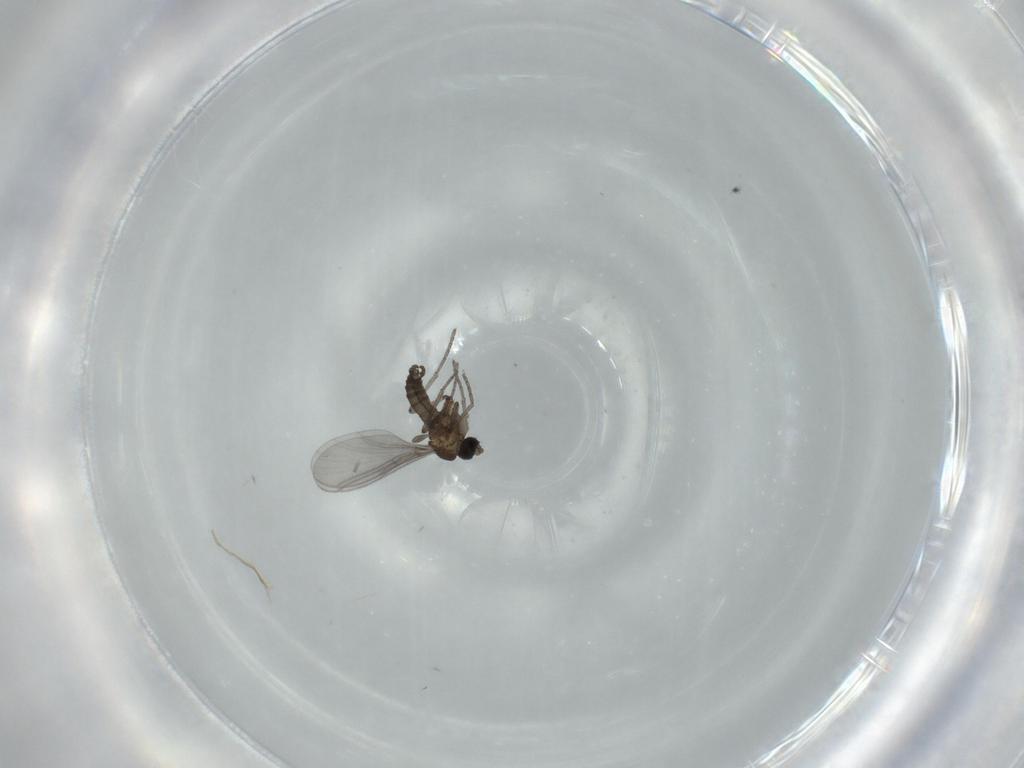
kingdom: Animalia
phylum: Arthropoda
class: Insecta
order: Diptera
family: Sciaridae
